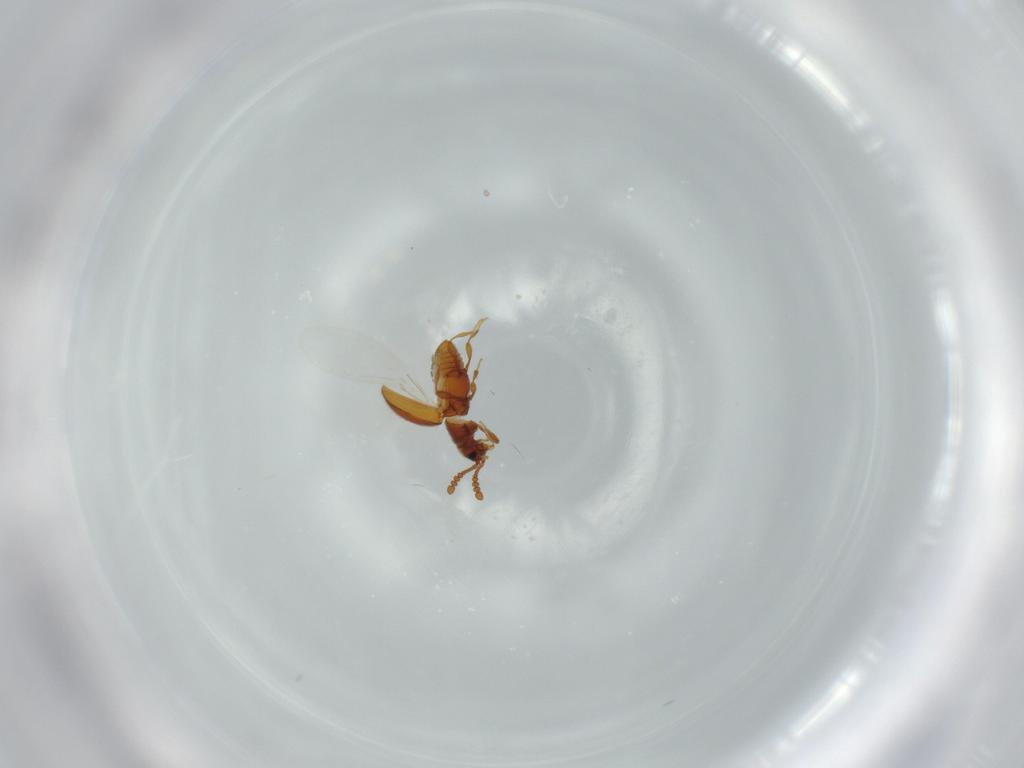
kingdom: Animalia
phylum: Arthropoda
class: Insecta
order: Coleoptera
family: Staphylinidae
